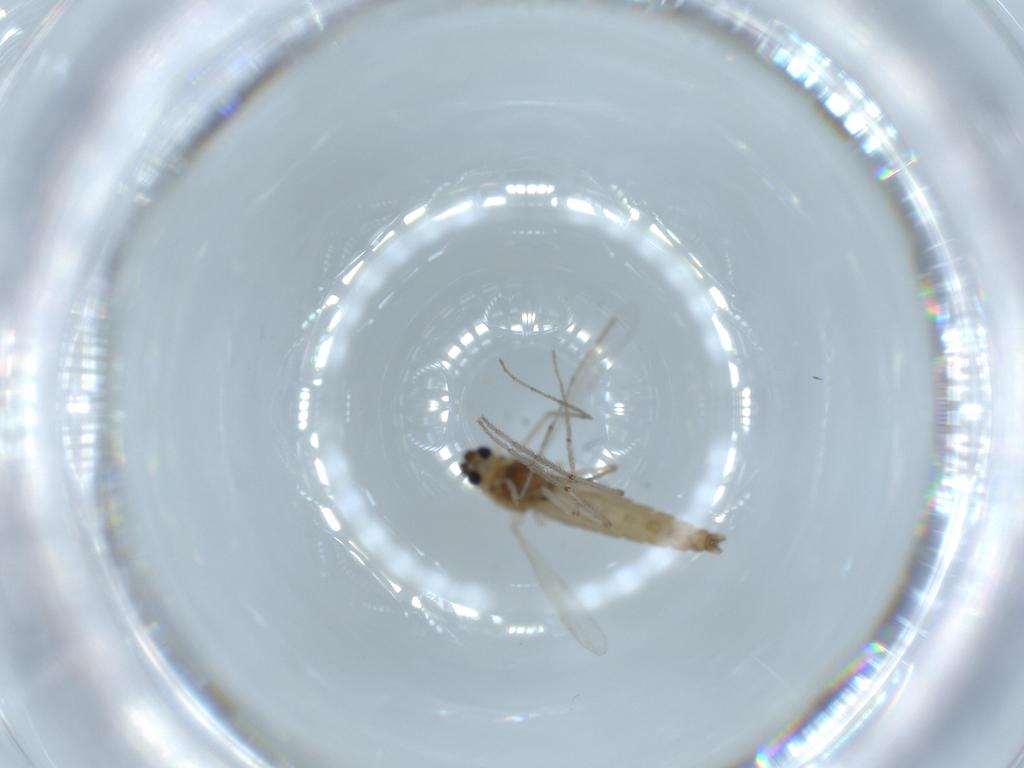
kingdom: Animalia
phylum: Arthropoda
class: Insecta
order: Diptera
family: Chironomidae
